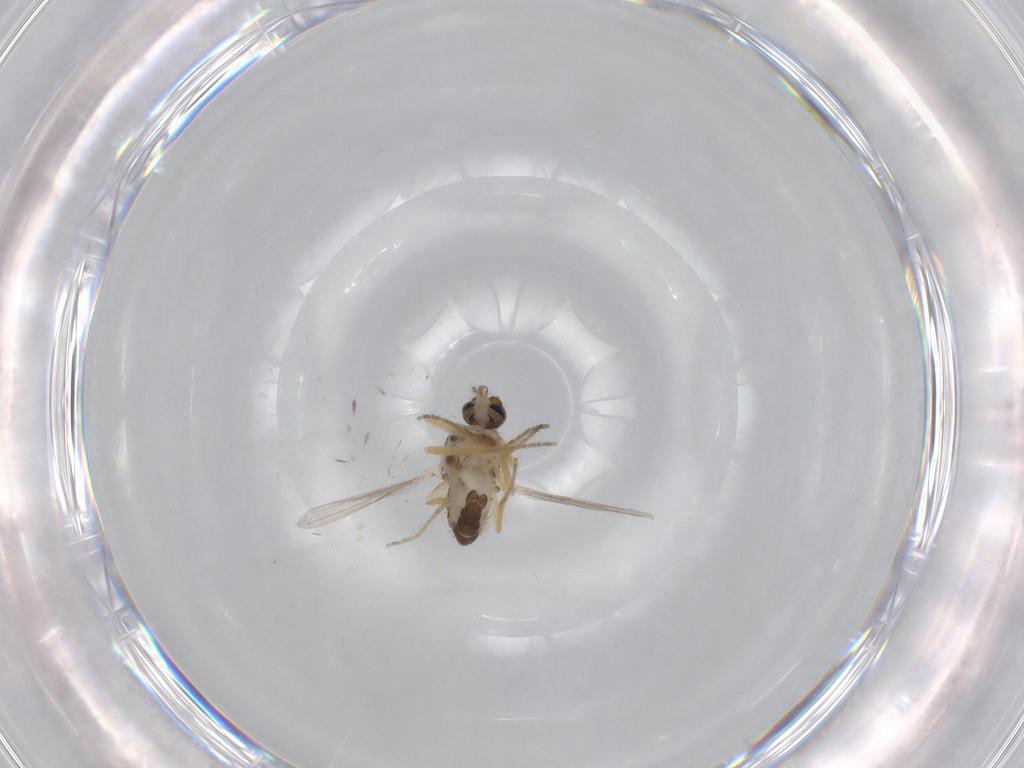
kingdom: Animalia
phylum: Arthropoda
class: Insecta
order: Diptera
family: Ceratopogonidae
